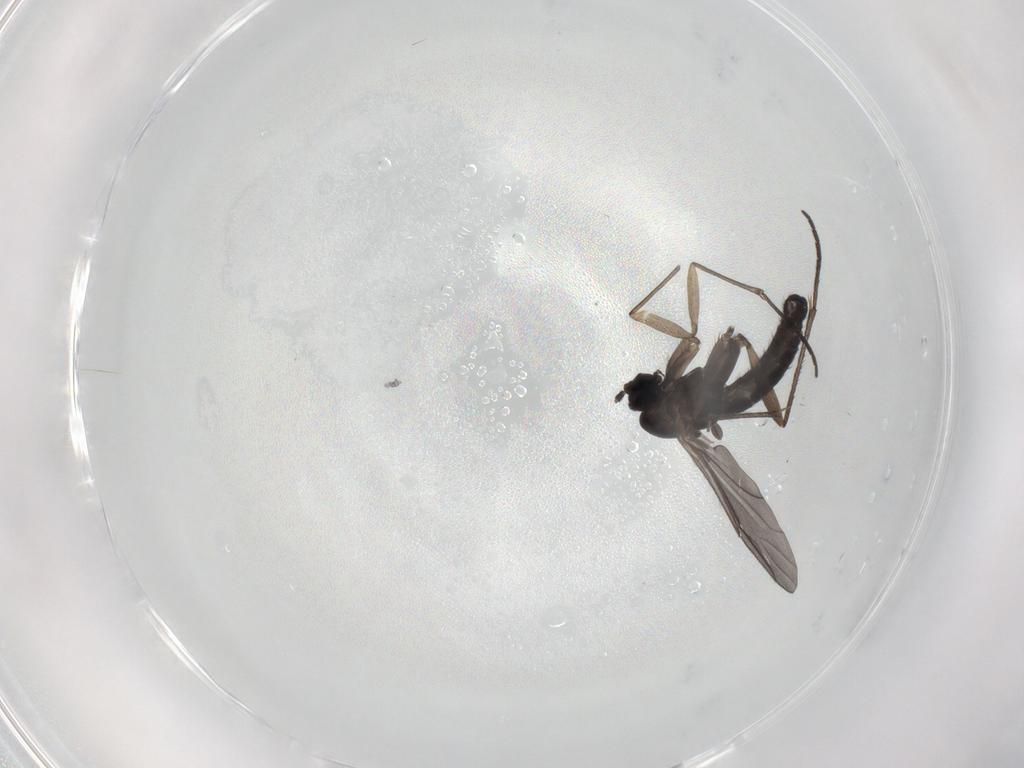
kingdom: Animalia
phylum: Arthropoda
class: Insecta
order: Diptera
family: Sciaridae
